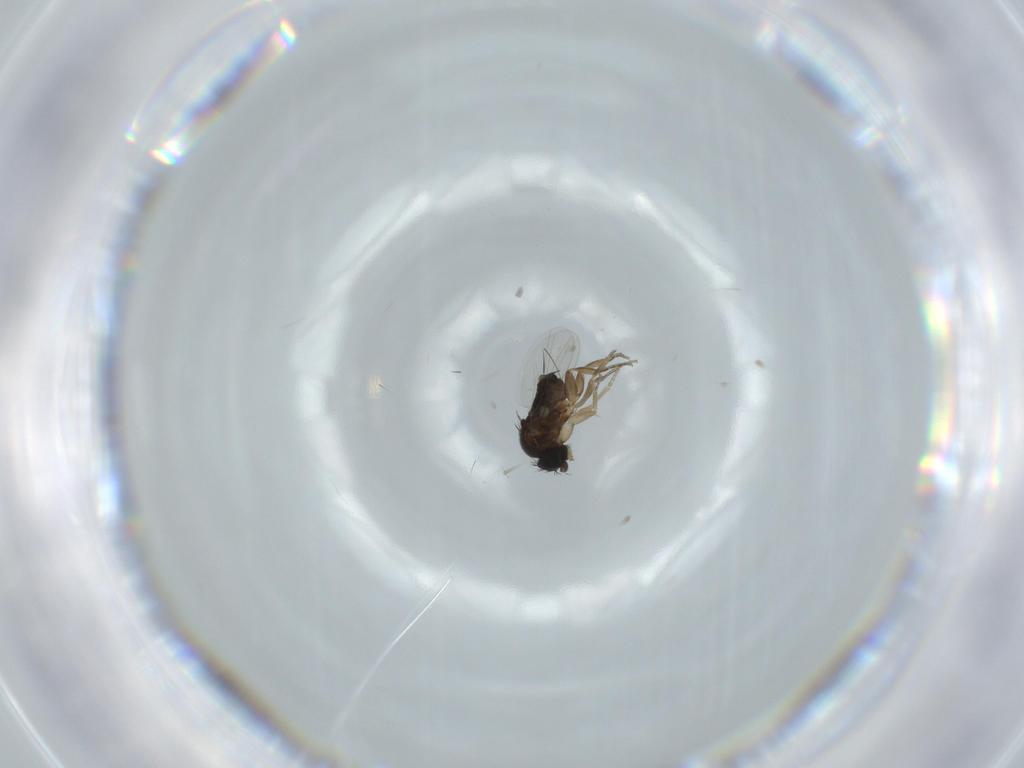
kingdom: Animalia
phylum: Arthropoda
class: Insecta
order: Diptera
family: Phoridae
